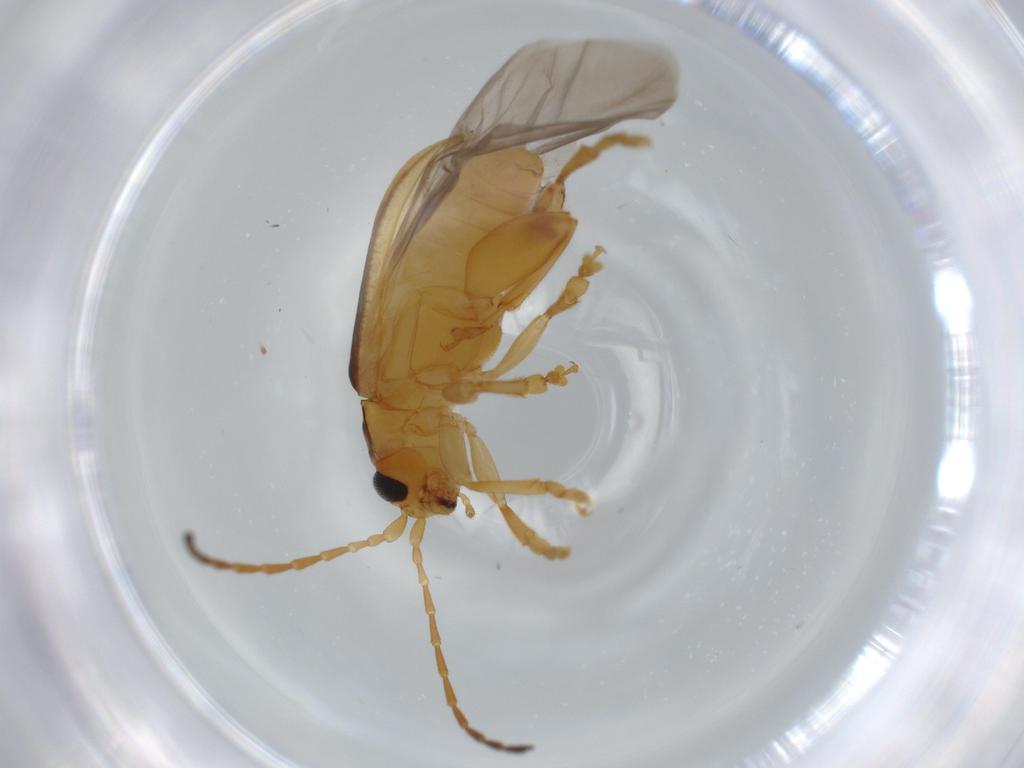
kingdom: Animalia
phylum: Arthropoda
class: Insecta
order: Coleoptera
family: Chrysomelidae
